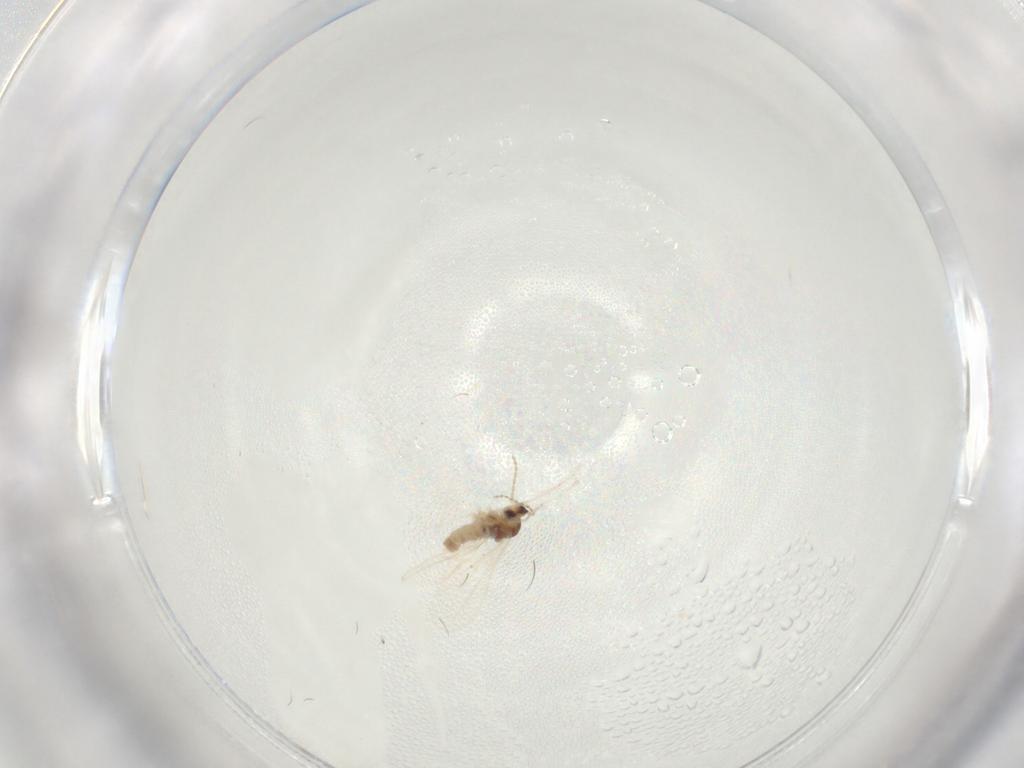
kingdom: Animalia
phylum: Arthropoda
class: Insecta
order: Diptera
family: Cecidomyiidae
